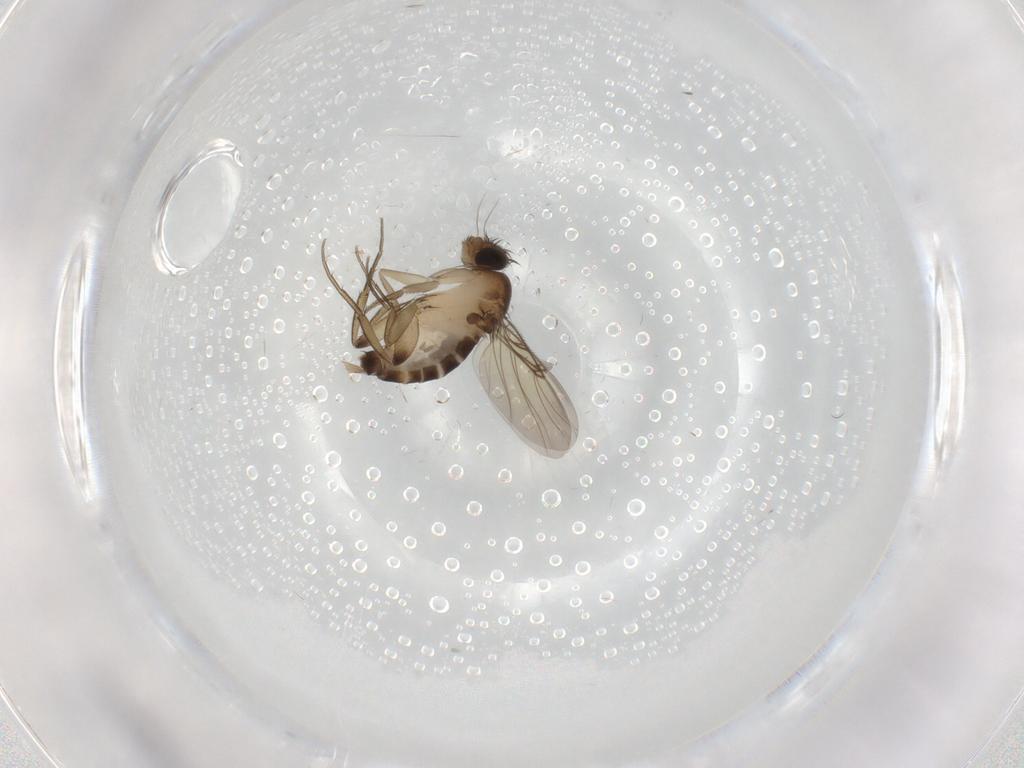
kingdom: Animalia
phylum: Arthropoda
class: Insecta
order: Diptera
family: Phoridae
